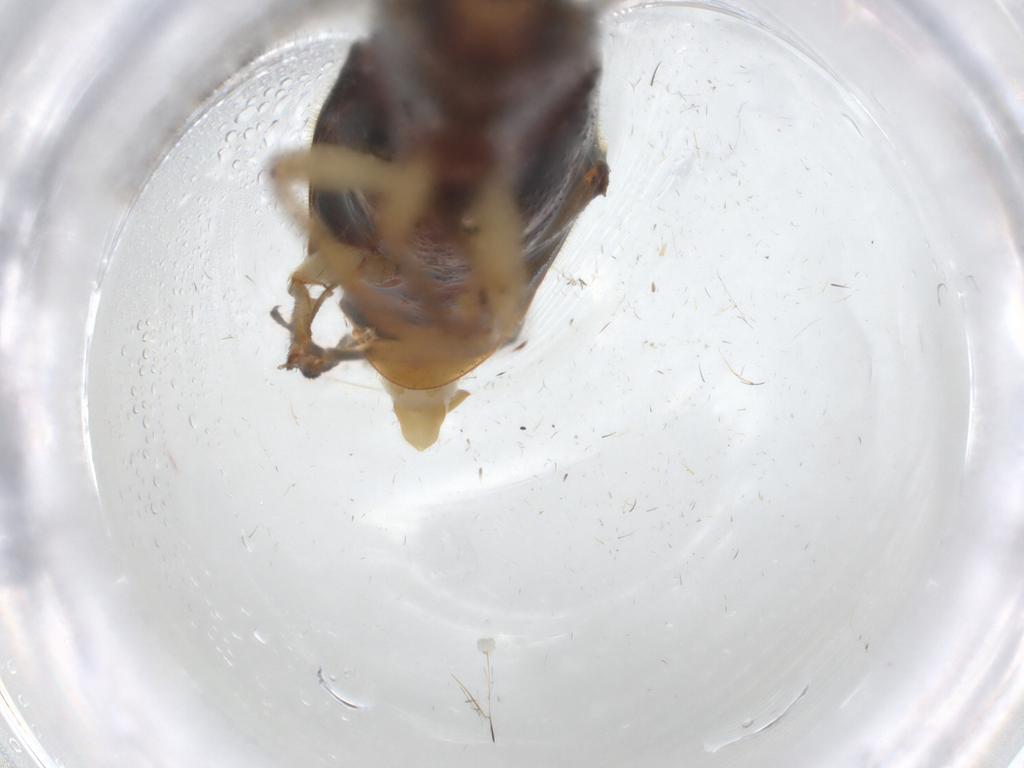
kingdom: Animalia
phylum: Arthropoda
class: Insecta
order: Coleoptera
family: Elateridae
